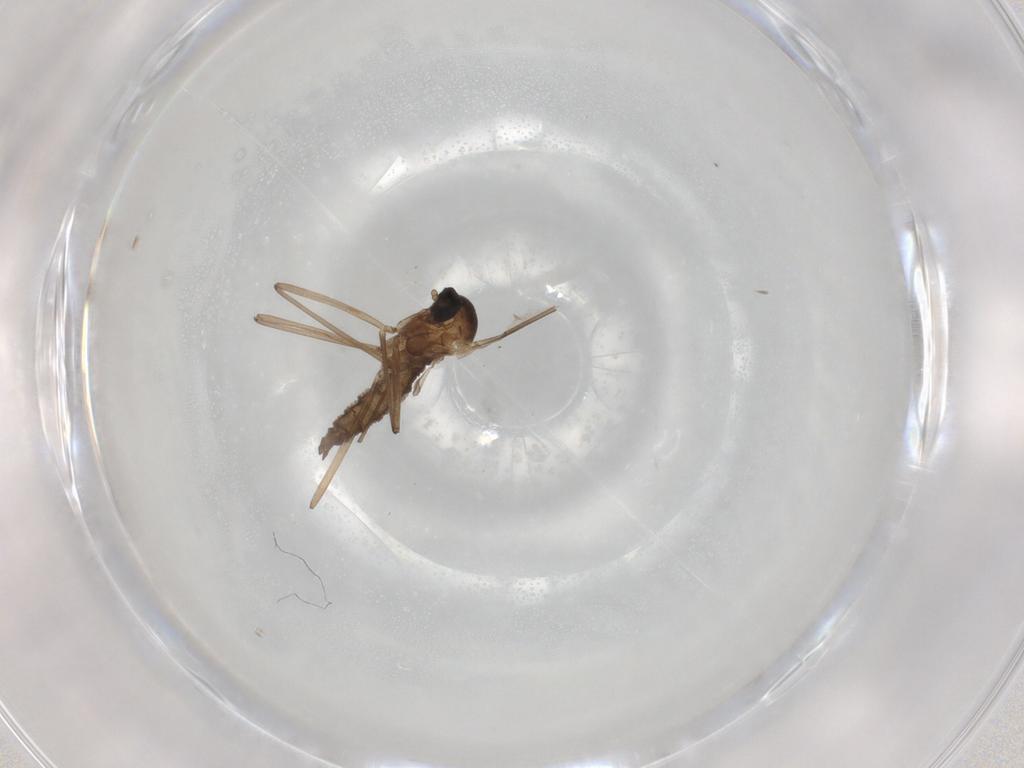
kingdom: Animalia
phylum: Arthropoda
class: Insecta
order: Diptera
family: Cecidomyiidae
